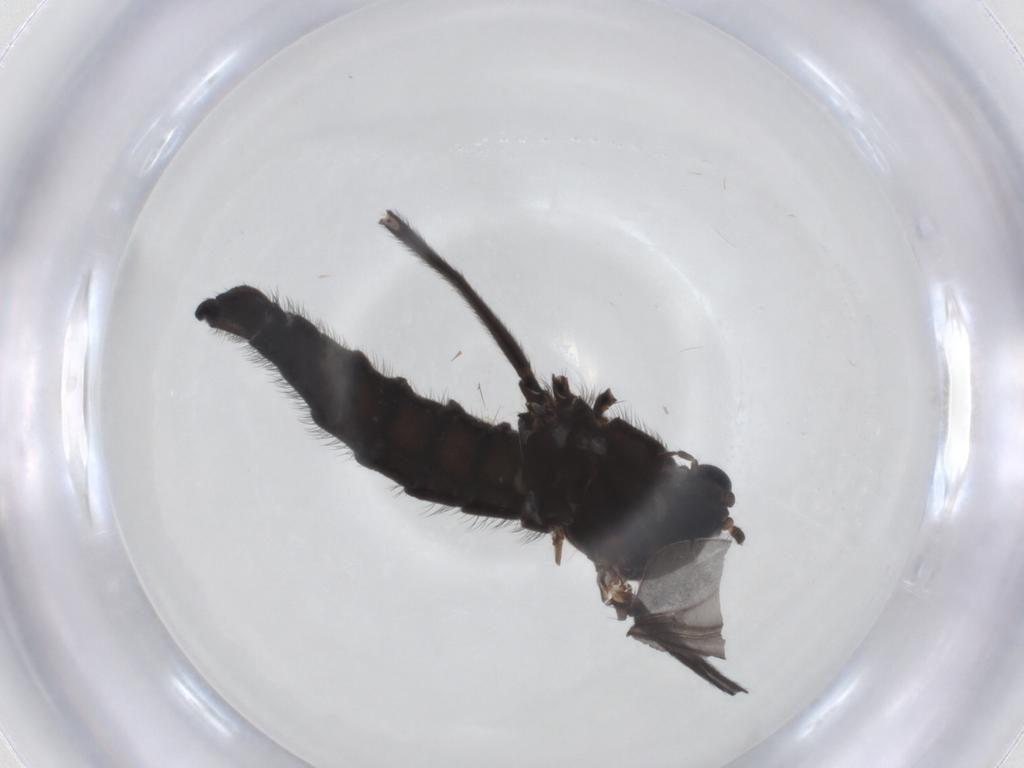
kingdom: Animalia
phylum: Arthropoda
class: Insecta
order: Diptera
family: Sciaridae
